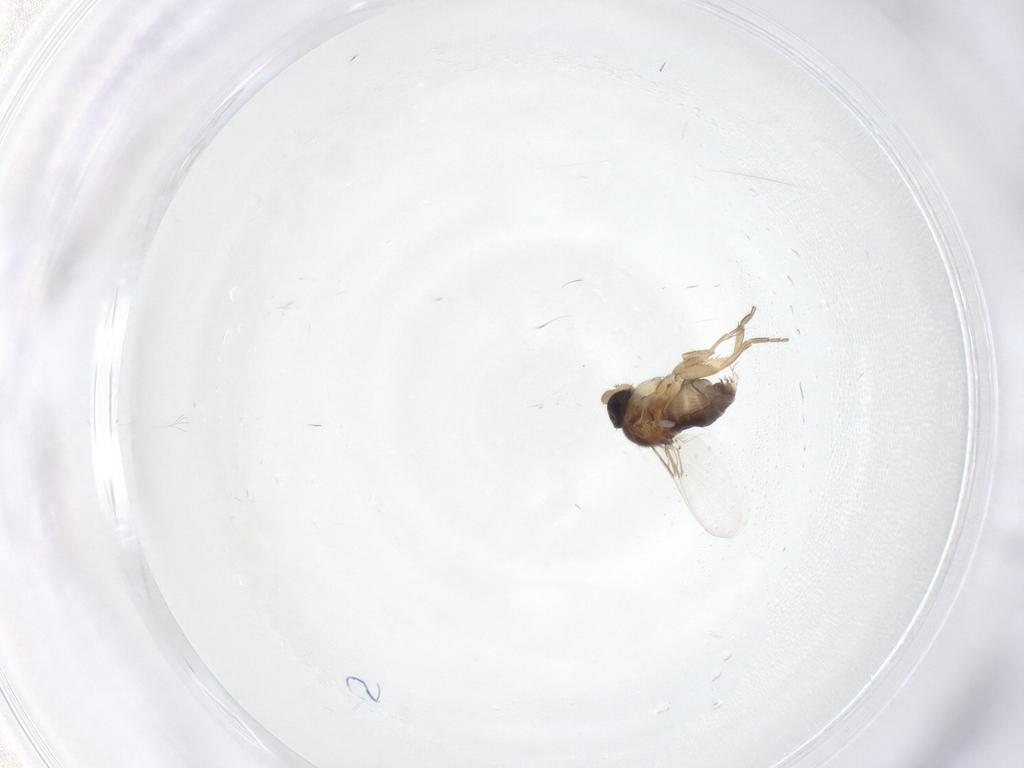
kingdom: Animalia
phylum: Arthropoda
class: Insecta
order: Diptera
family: Phoridae
